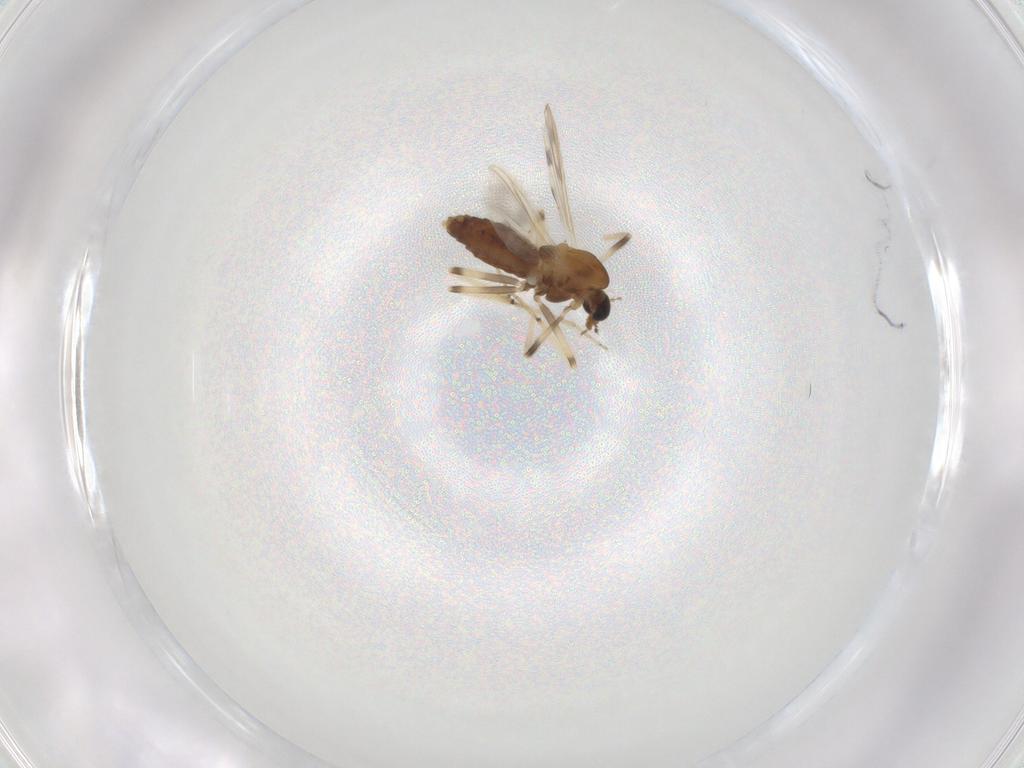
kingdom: Animalia
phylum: Arthropoda
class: Insecta
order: Diptera
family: Chironomidae
